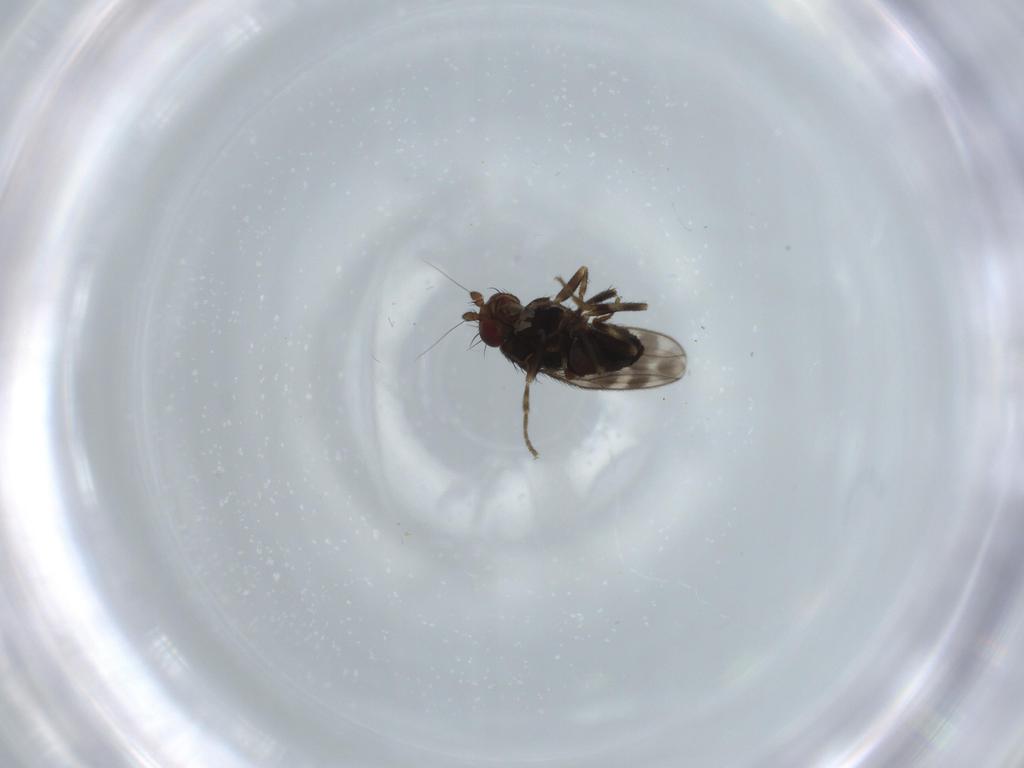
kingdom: Animalia
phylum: Arthropoda
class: Insecta
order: Diptera
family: Sphaeroceridae
